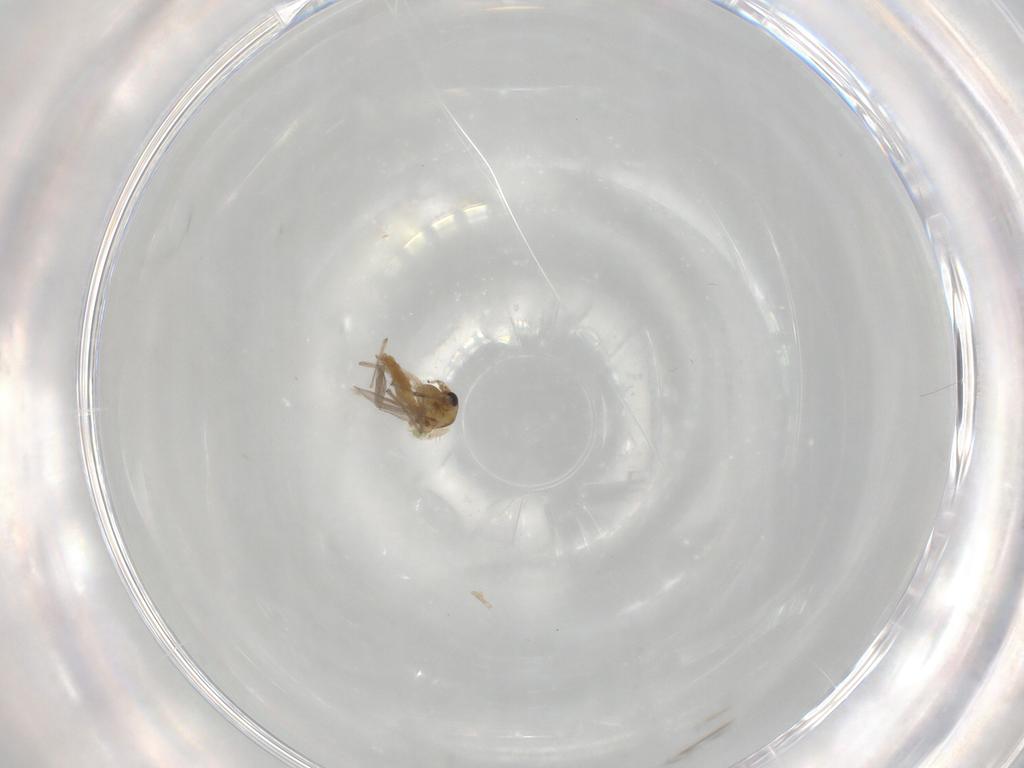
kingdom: Animalia
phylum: Arthropoda
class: Insecta
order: Diptera
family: Chironomidae
